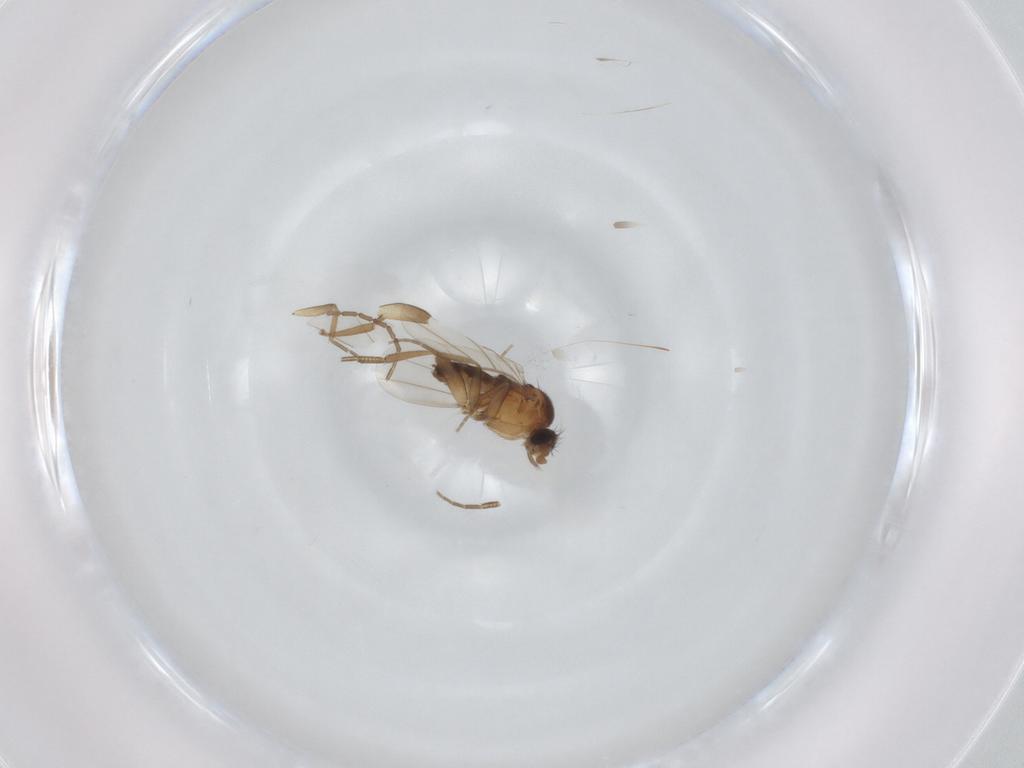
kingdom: Animalia
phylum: Arthropoda
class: Insecta
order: Diptera
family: Cecidomyiidae
